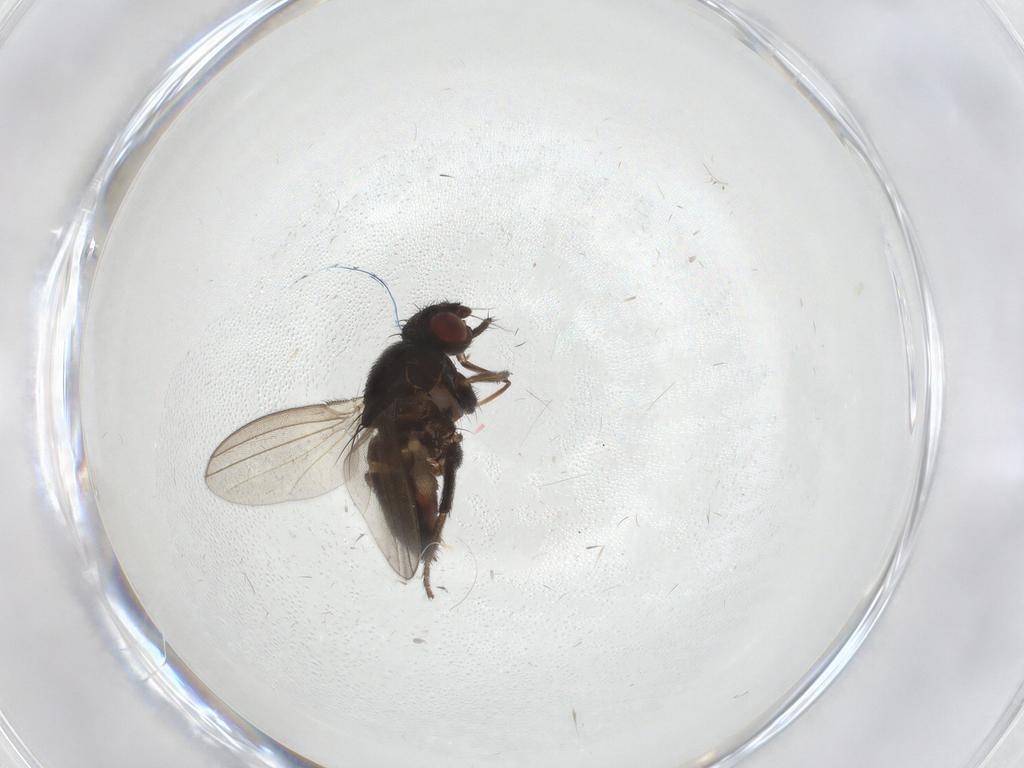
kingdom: Animalia
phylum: Arthropoda
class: Insecta
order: Diptera
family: Milichiidae
